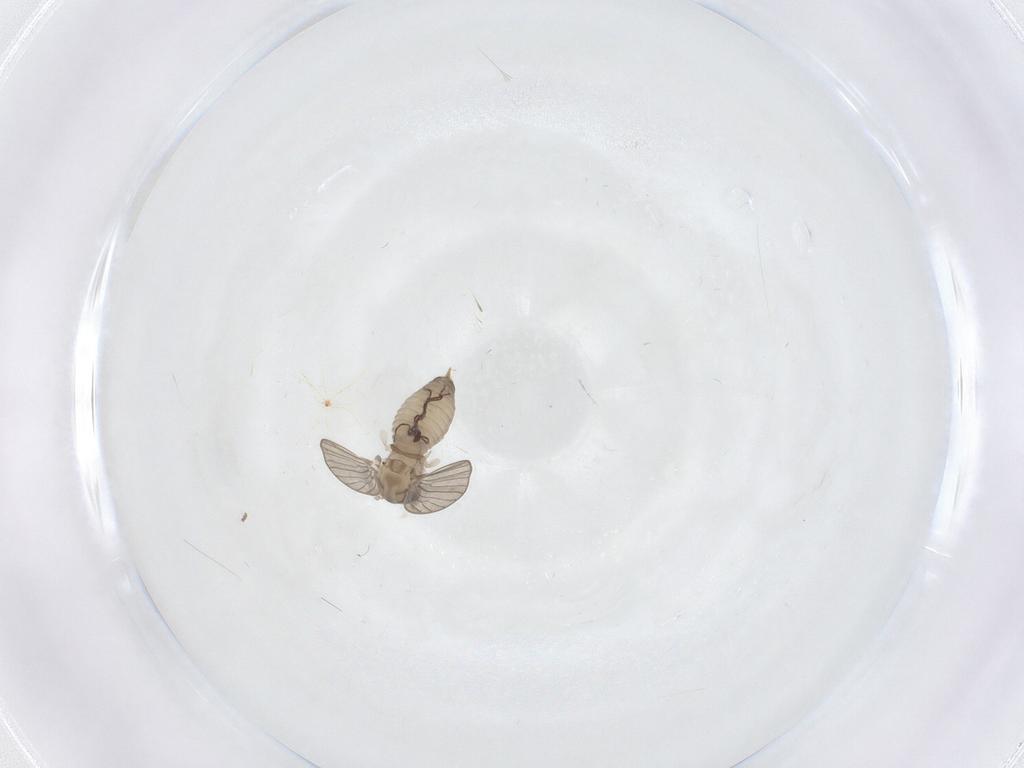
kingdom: Animalia
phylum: Arthropoda
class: Insecta
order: Diptera
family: Psychodidae
